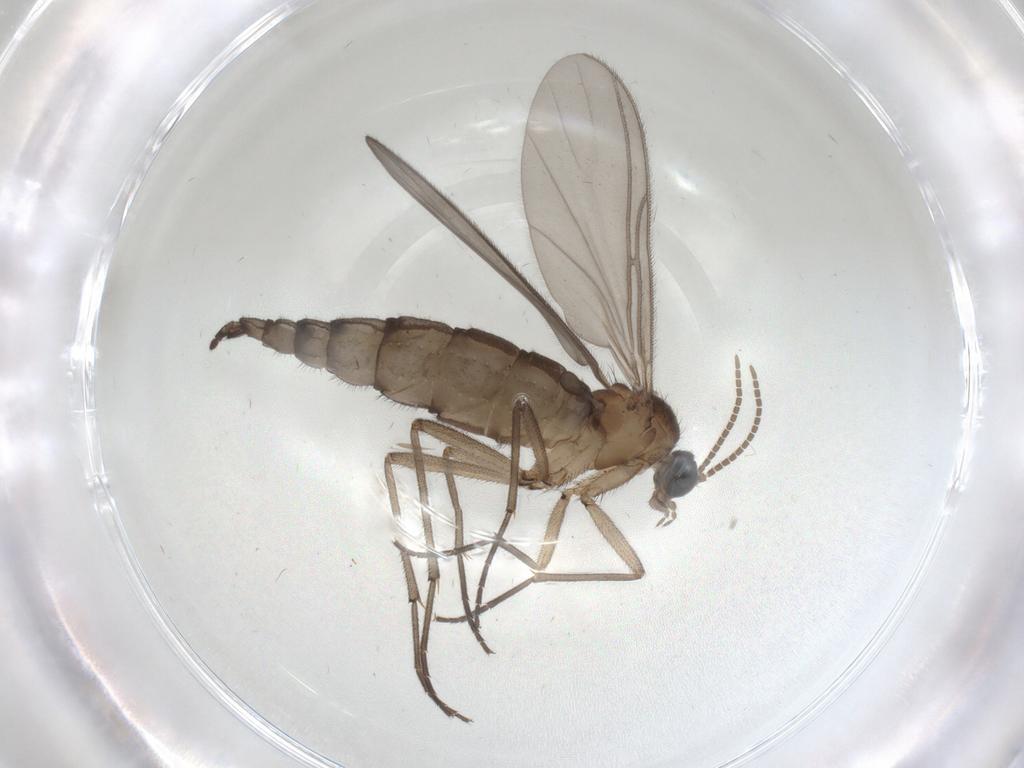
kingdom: Animalia
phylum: Arthropoda
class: Insecta
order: Diptera
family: Cecidomyiidae
